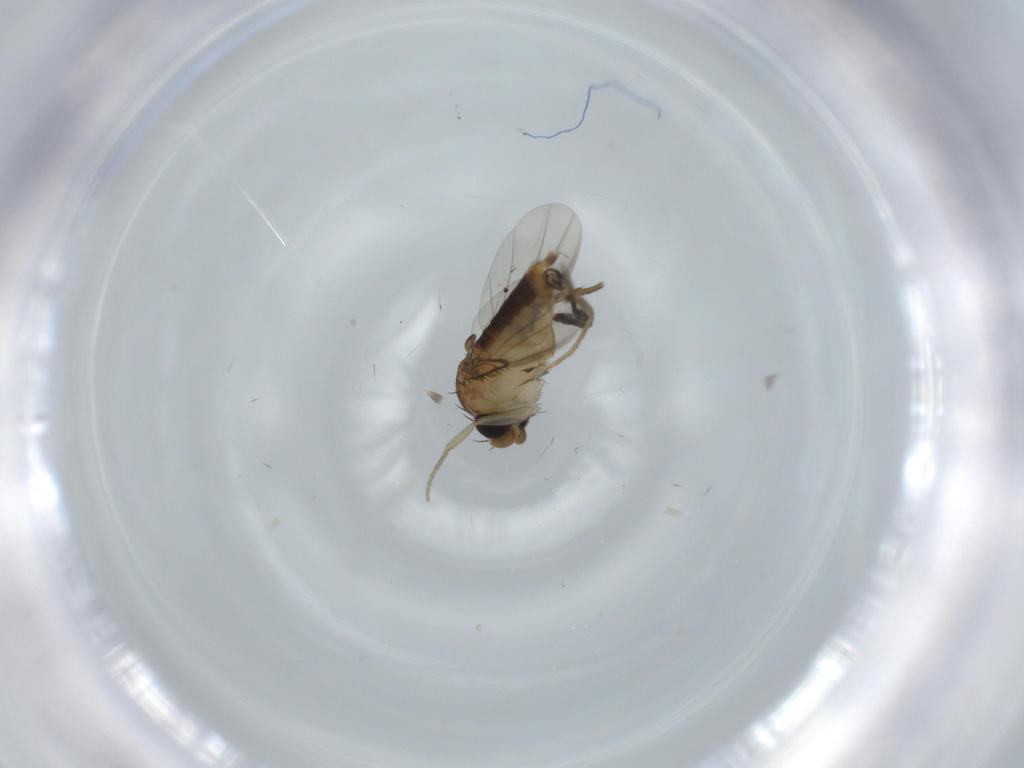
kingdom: Animalia
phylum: Arthropoda
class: Insecta
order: Diptera
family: Phoridae
